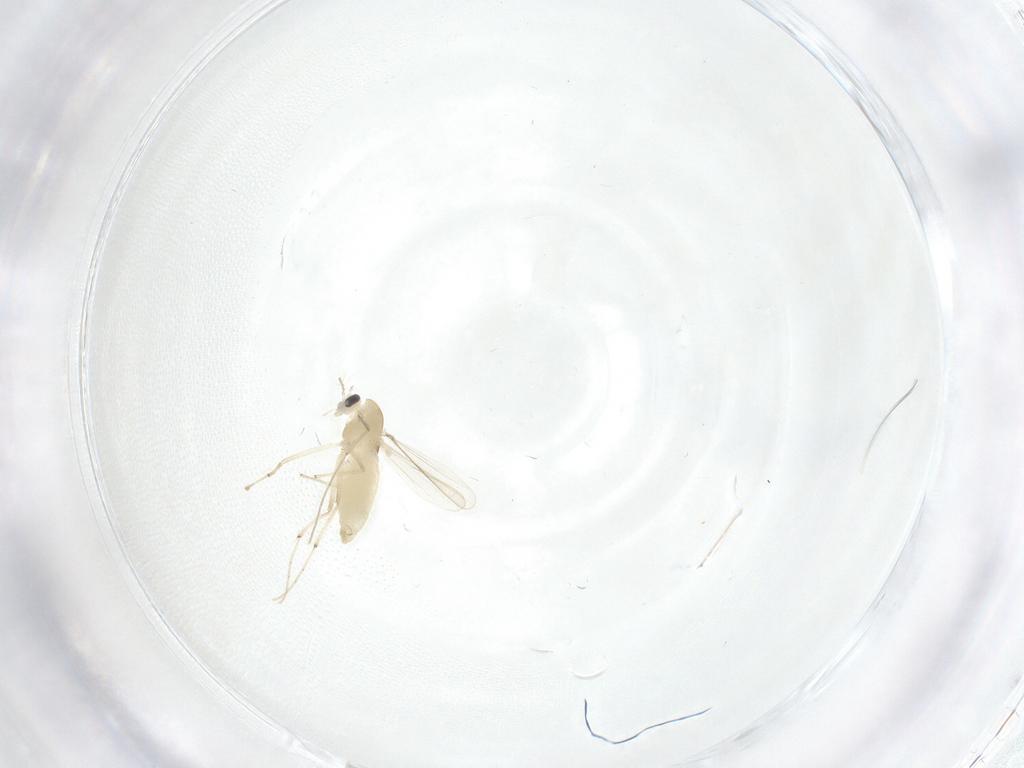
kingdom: Animalia
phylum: Arthropoda
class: Insecta
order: Diptera
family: Chironomidae
